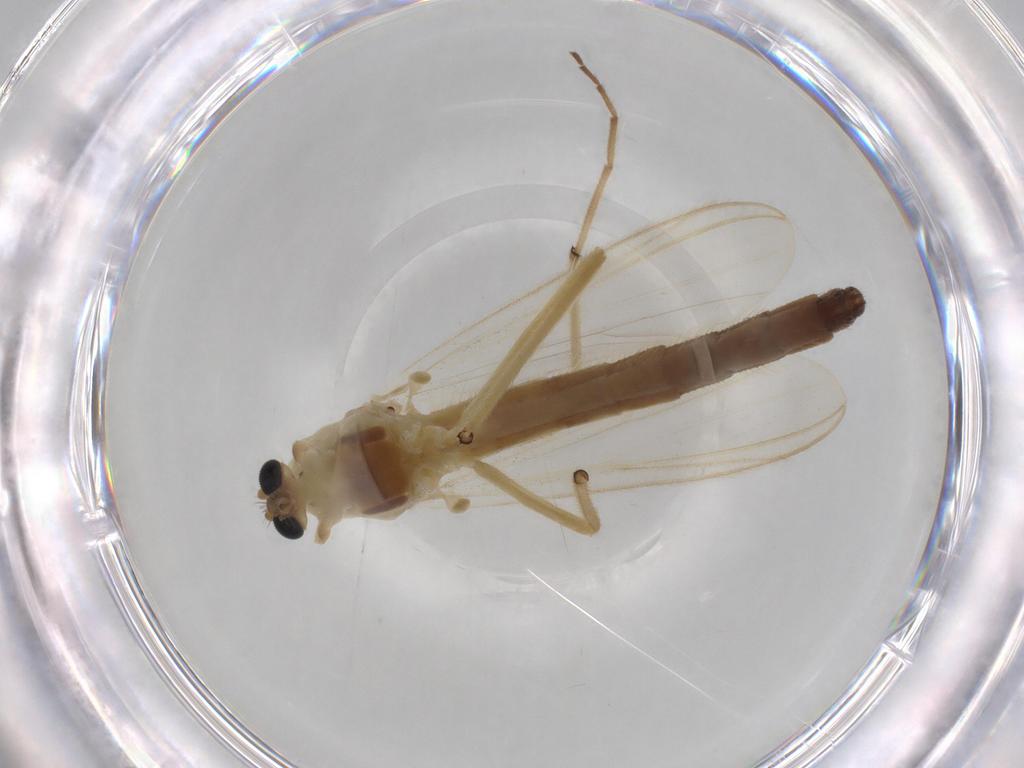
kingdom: Animalia
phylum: Arthropoda
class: Insecta
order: Diptera
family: Chironomidae
